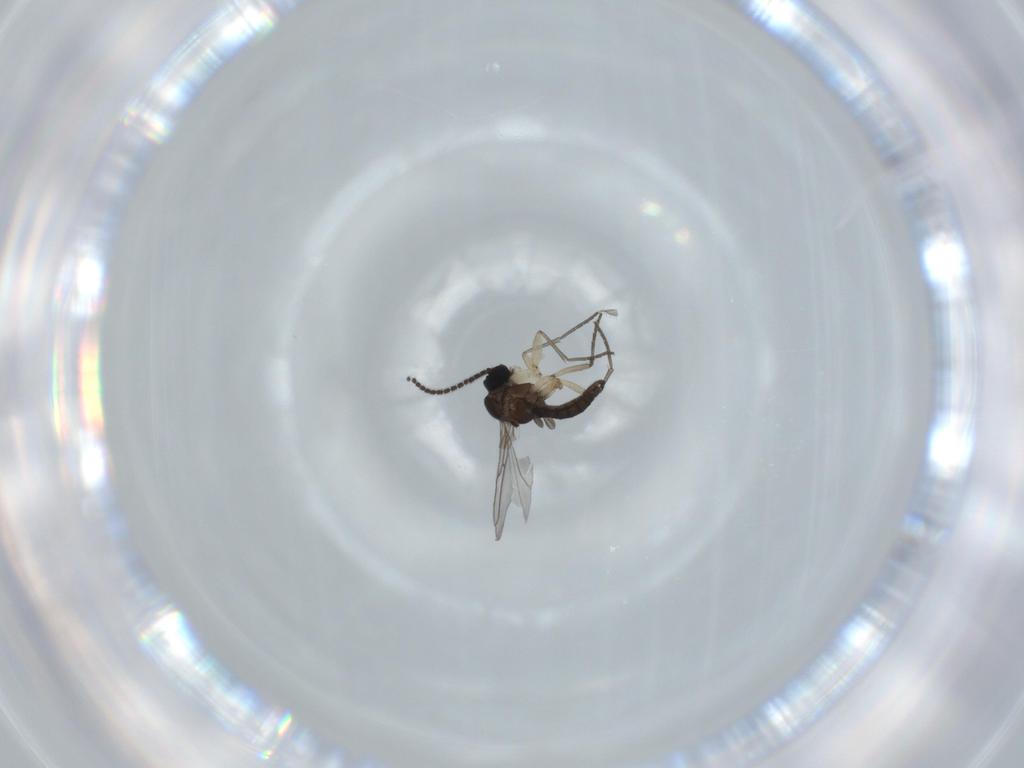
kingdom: Animalia
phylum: Arthropoda
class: Insecta
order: Diptera
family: Sciaridae
